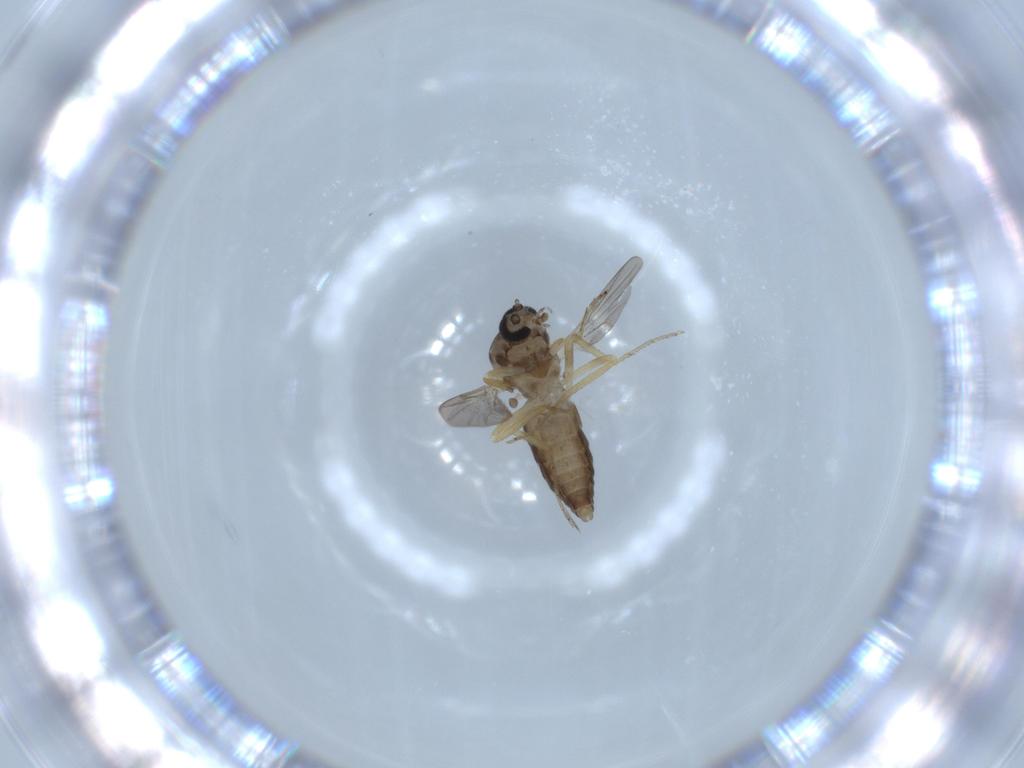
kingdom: Animalia
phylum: Arthropoda
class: Insecta
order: Diptera
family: Ceratopogonidae
